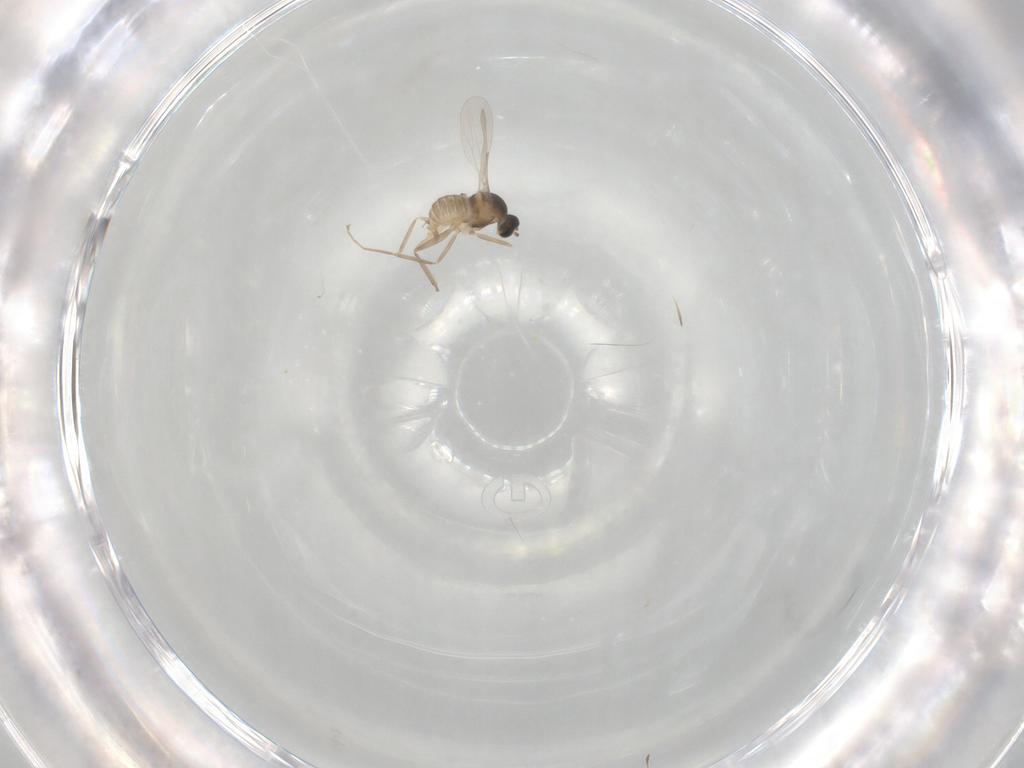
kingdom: Animalia
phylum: Arthropoda
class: Insecta
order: Diptera
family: Cecidomyiidae
